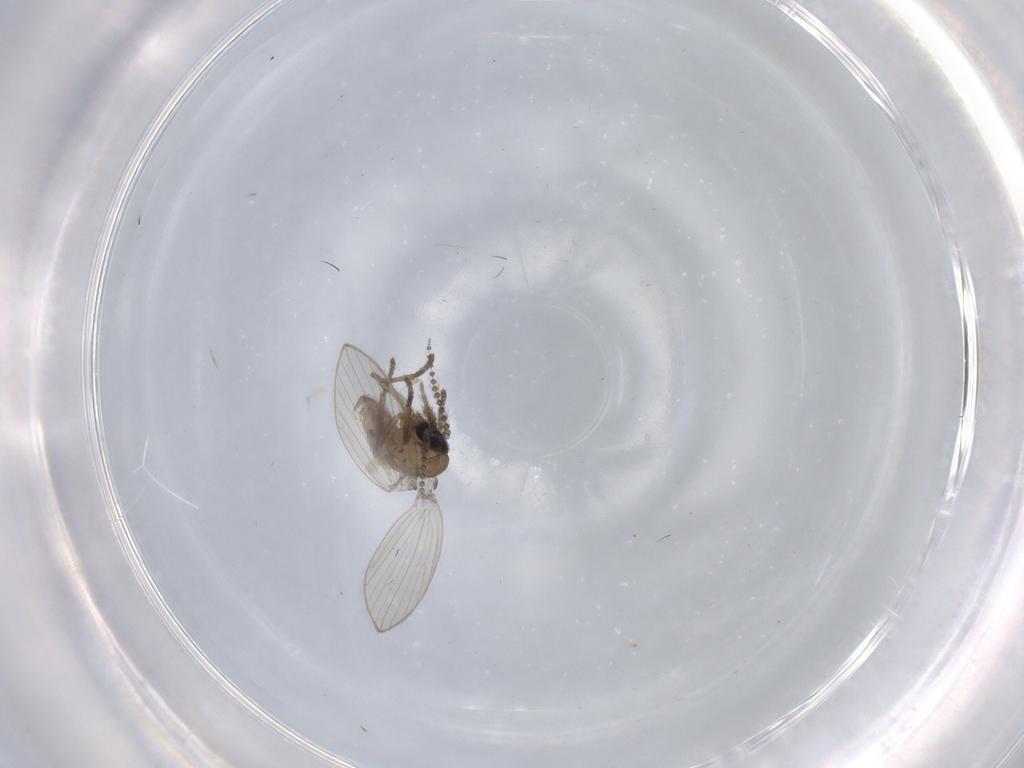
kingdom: Animalia
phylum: Arthropoda
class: Insecta
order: Diptera
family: Psychodidae
